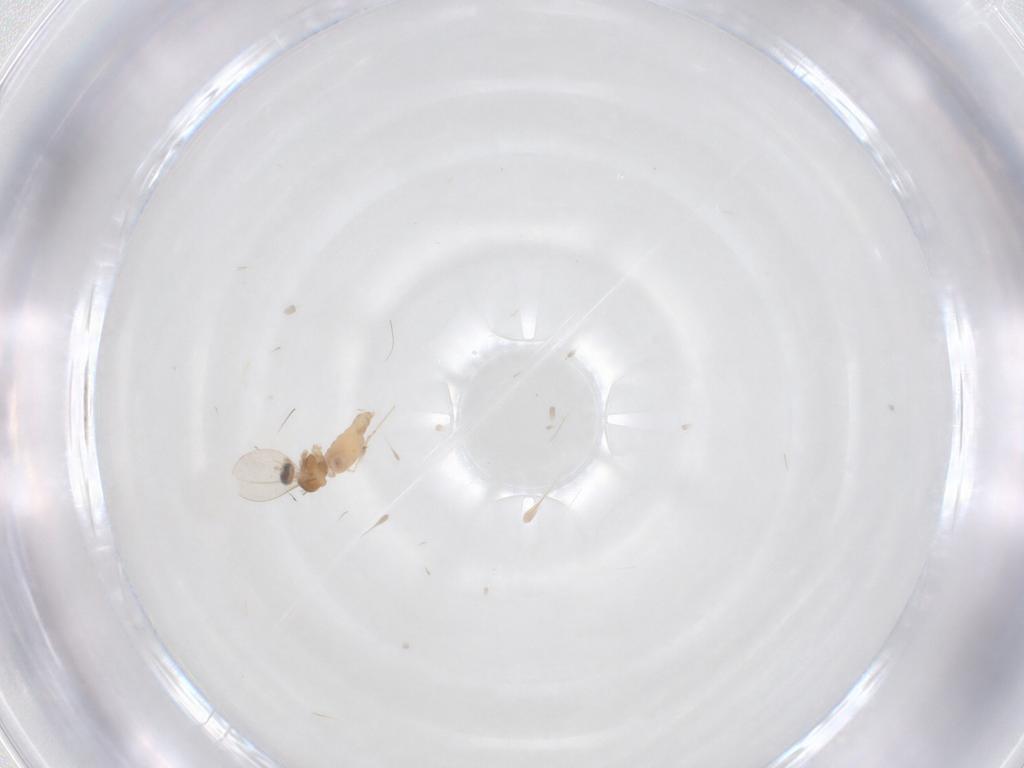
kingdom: Animalia
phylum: Arthropoda
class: Insecta
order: Diptera
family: Cecidomyiidae
